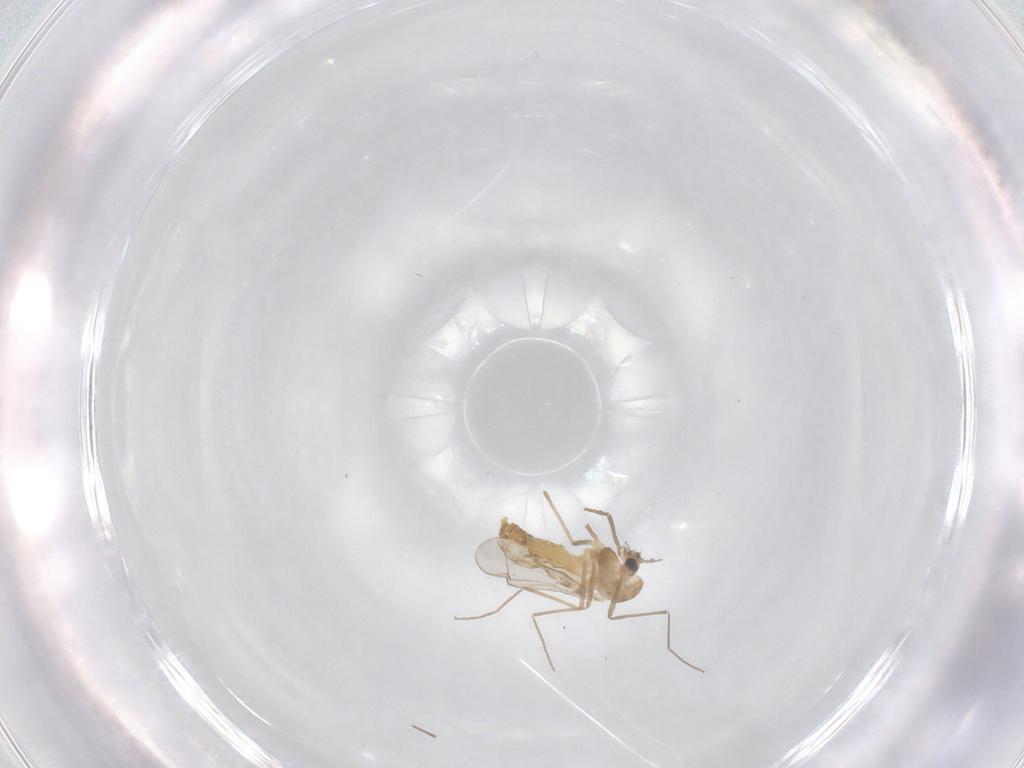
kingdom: Animalia
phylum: Arthropoda
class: Insecta
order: Diptera
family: Chironomidae
